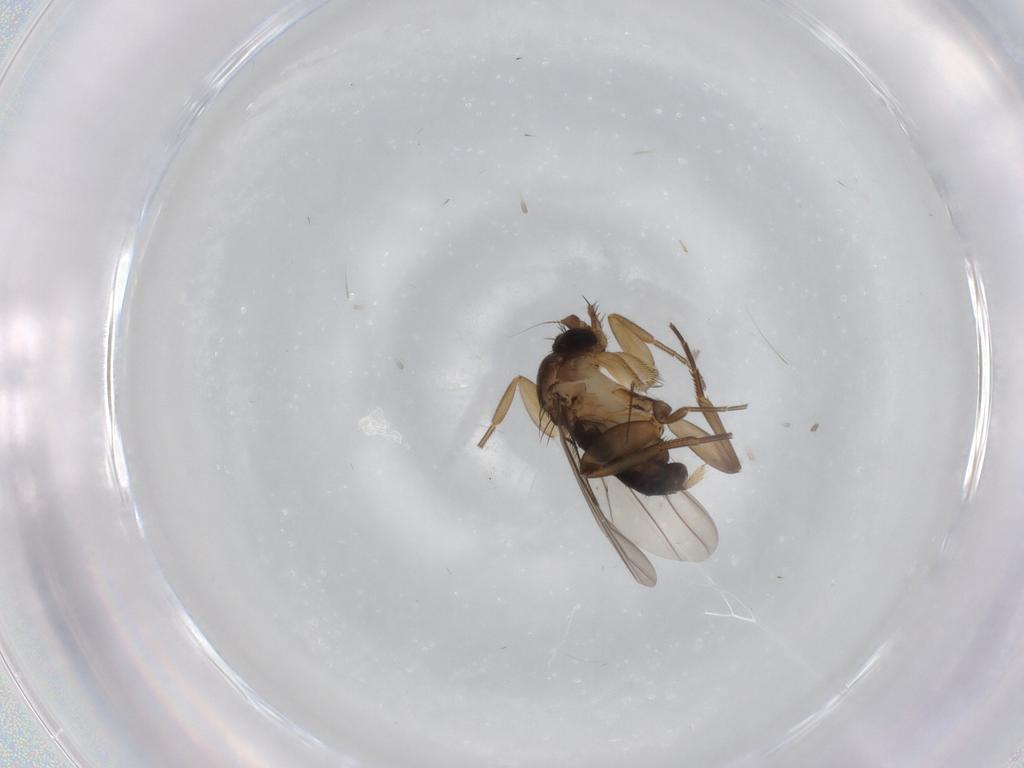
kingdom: Animalia
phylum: Arthropoda
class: Insecta
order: Diptera
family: Phoridae
